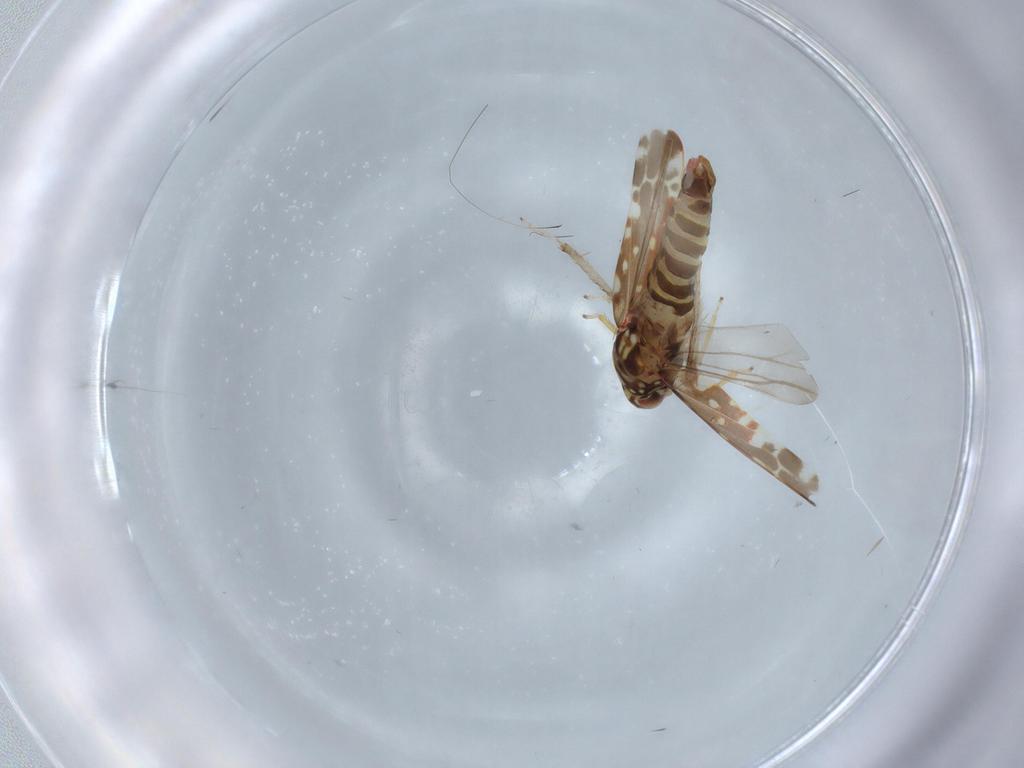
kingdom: Animalia
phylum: Arthropoda
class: Insecta
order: Hemiptera
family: Cicadellidae
